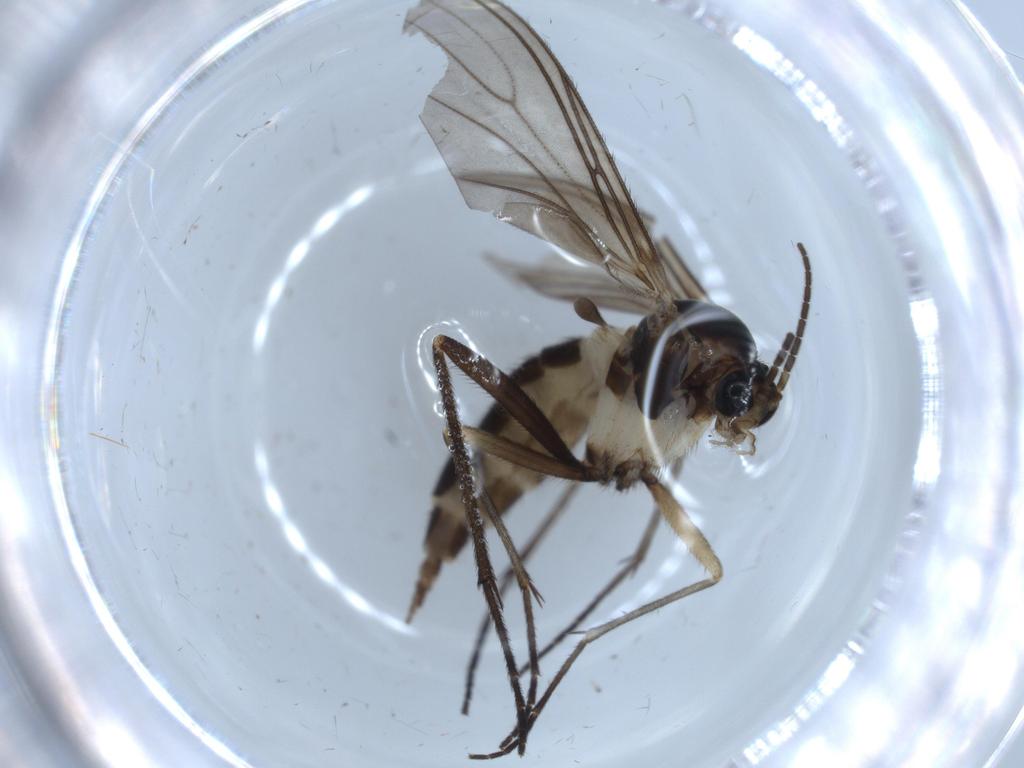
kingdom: Animalia
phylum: Arthropoda
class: Insecta
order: Diptera
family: Sciaridae
